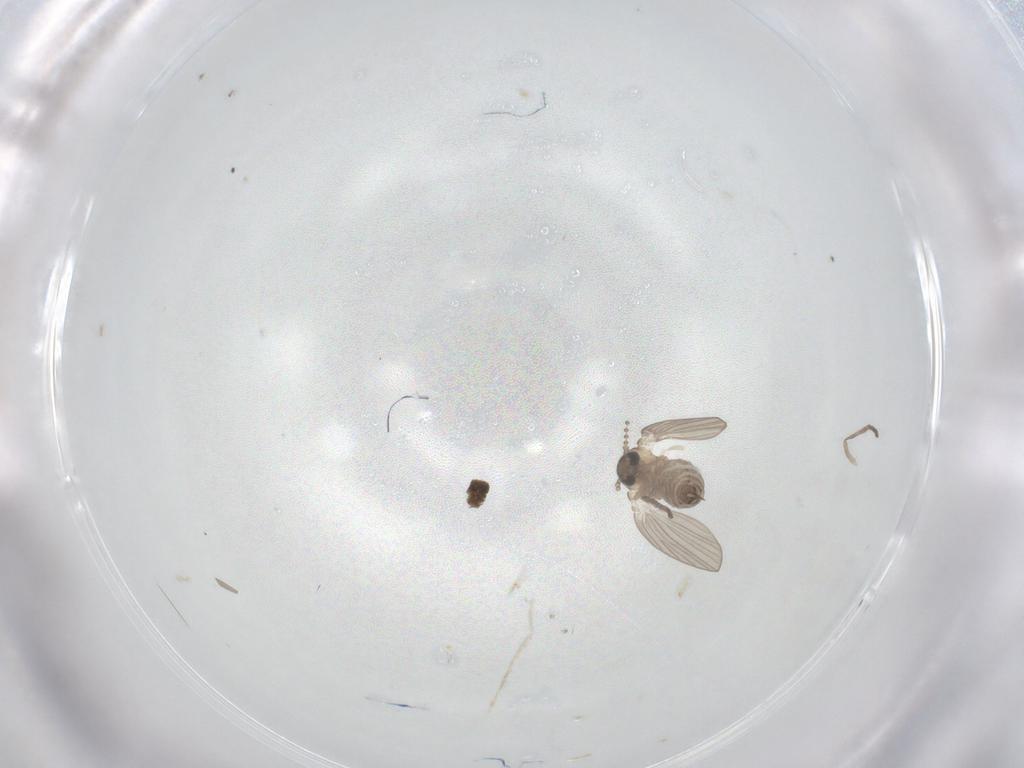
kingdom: Animalia
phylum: Arthropoda
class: Insecta
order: Diptera
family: Psychodidae
